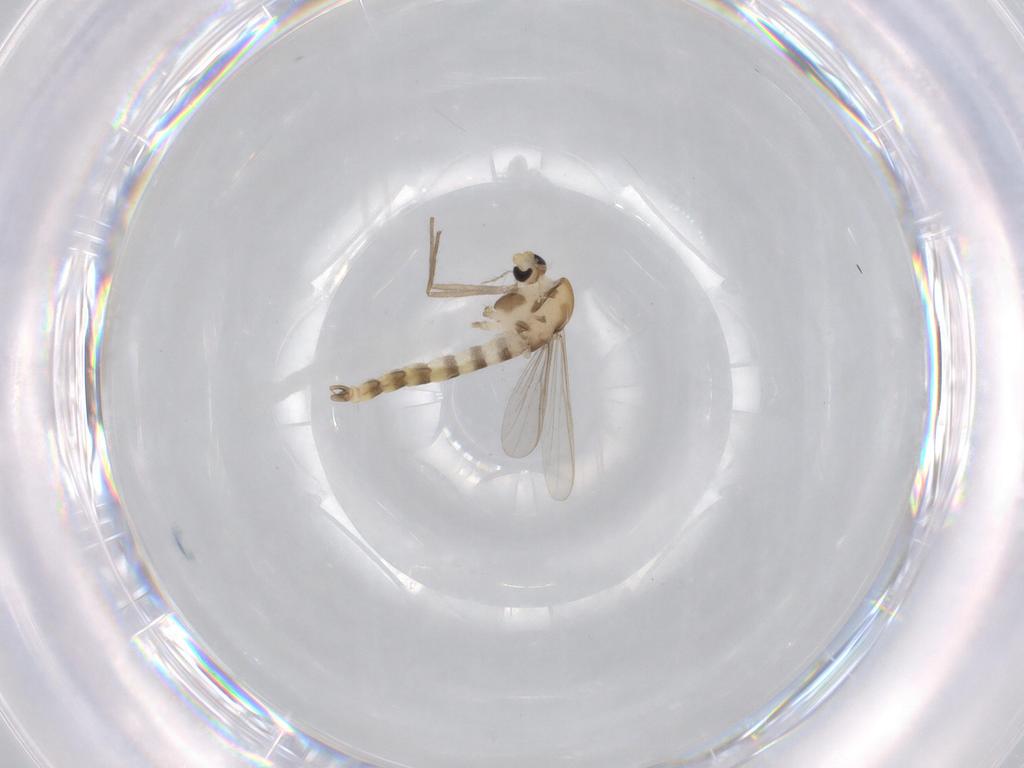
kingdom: Animalia
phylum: Arthropoda
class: Insecta
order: Diptera
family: Chironomidae
